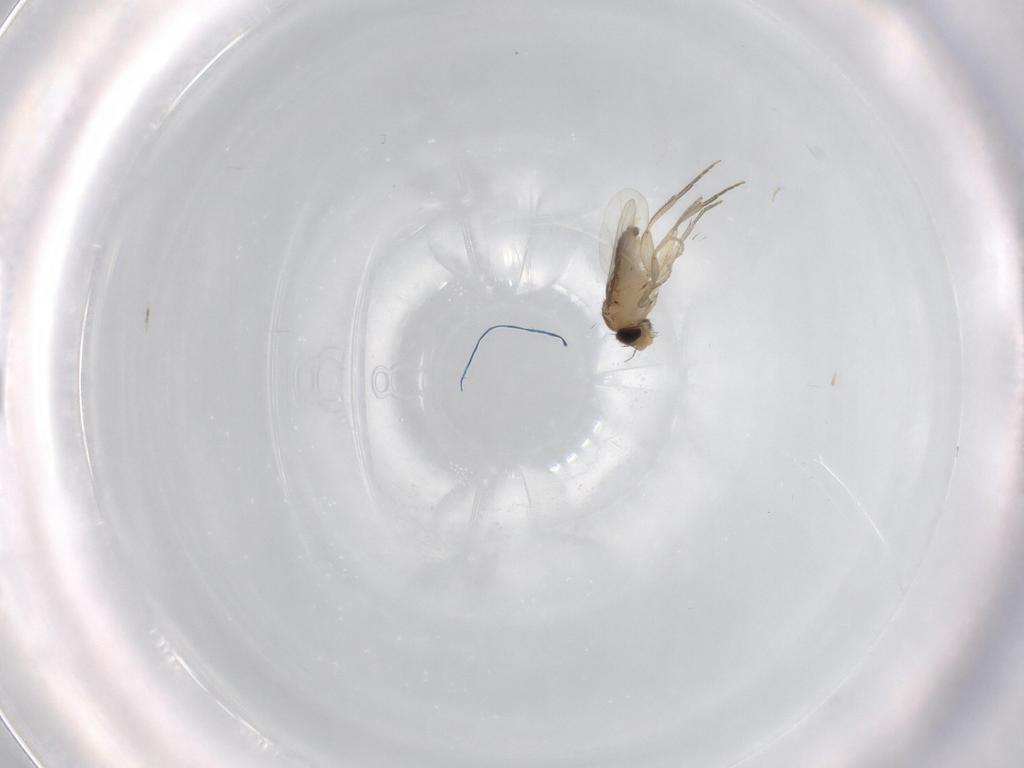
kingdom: Animalia
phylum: Arthropoda
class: Insecta
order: Diptera
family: Phoridae
